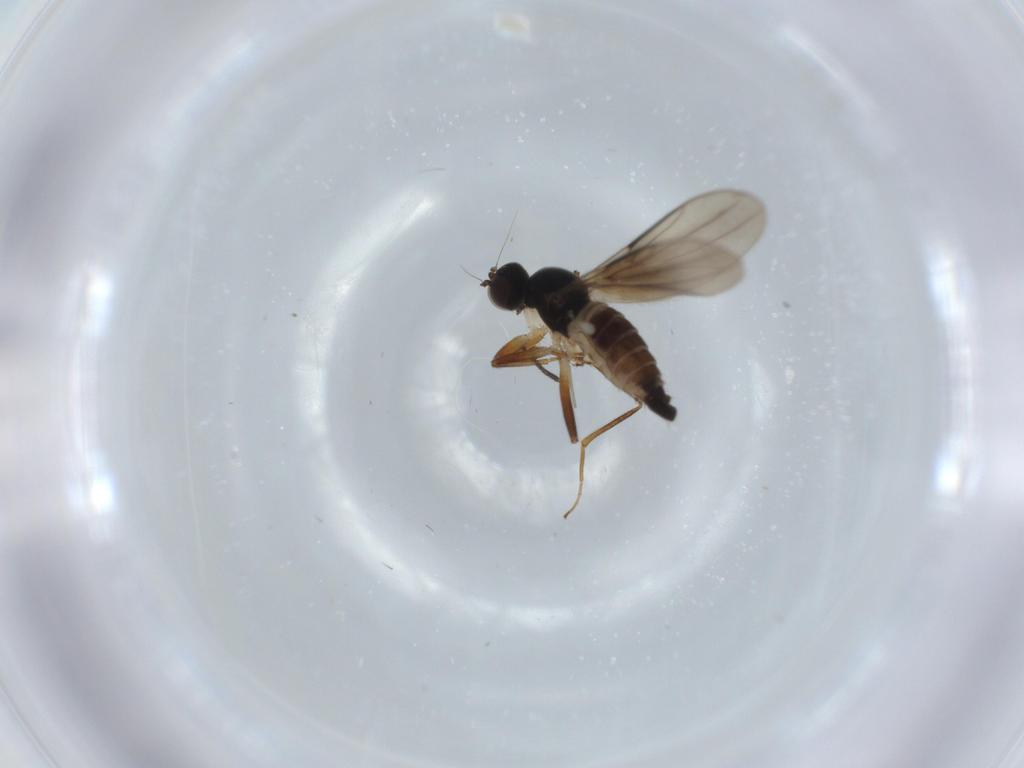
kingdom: Animalia
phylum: Arthropoda
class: Insecta
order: Diptera
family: Hybotidae
